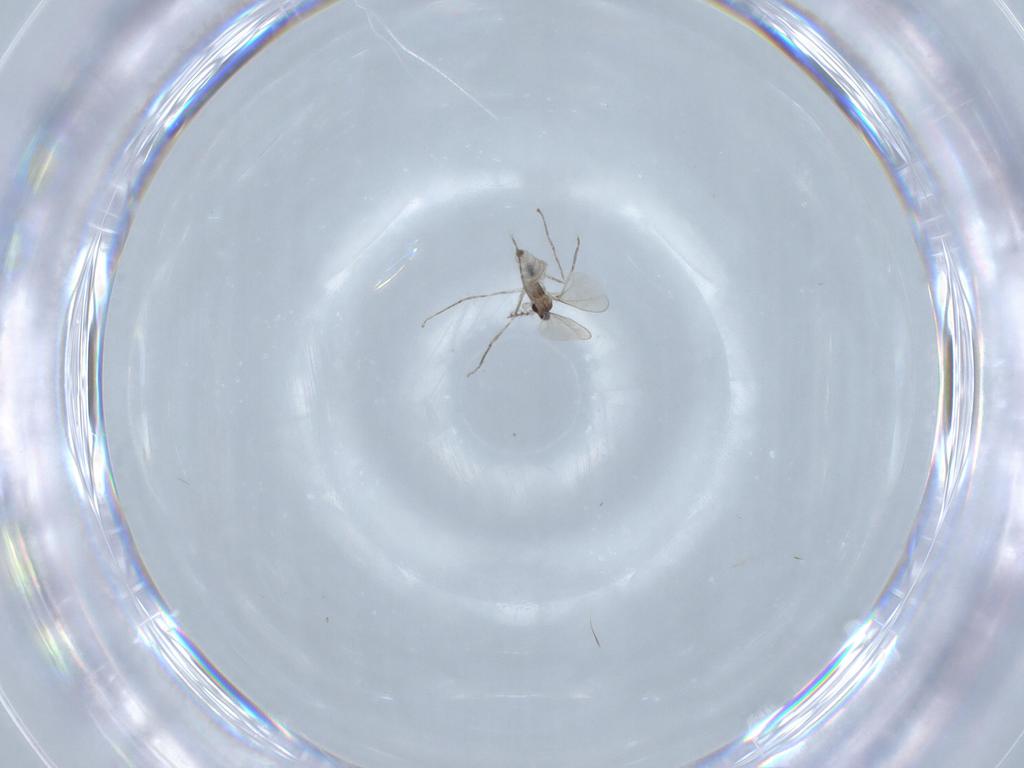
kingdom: Animalia
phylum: Arthropoda
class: Insecta
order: Diptera
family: Cecidomyiidae
